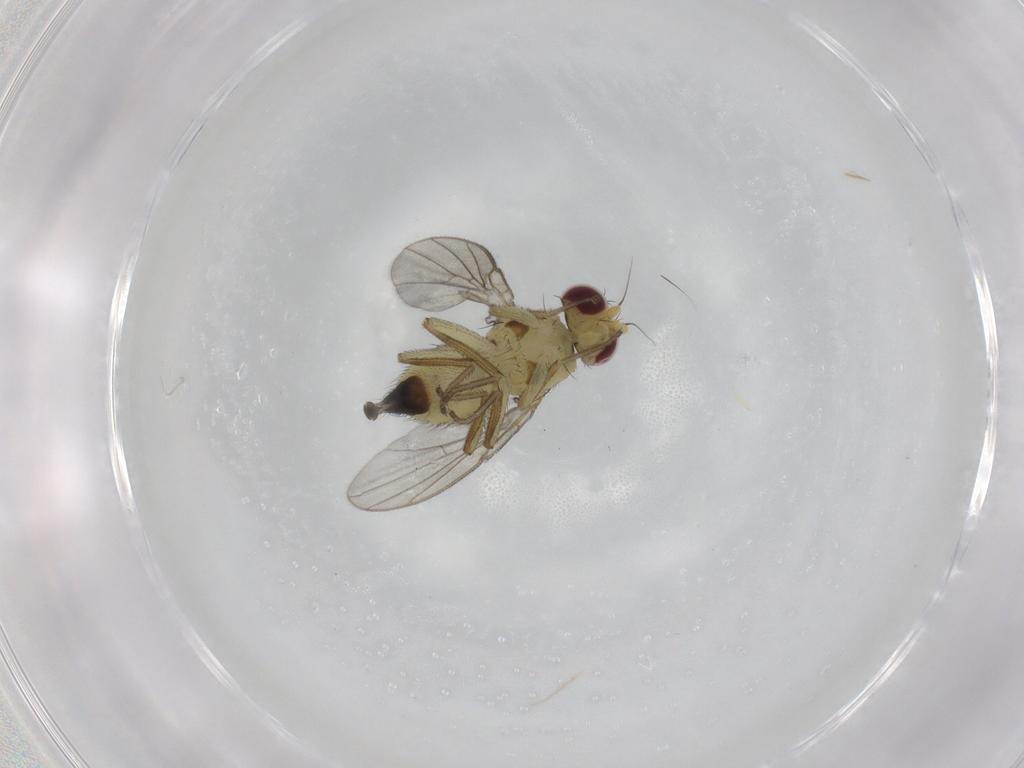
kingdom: Animalia
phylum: Arthropoda
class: Insecta
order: Diptera
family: Agromyzidae
